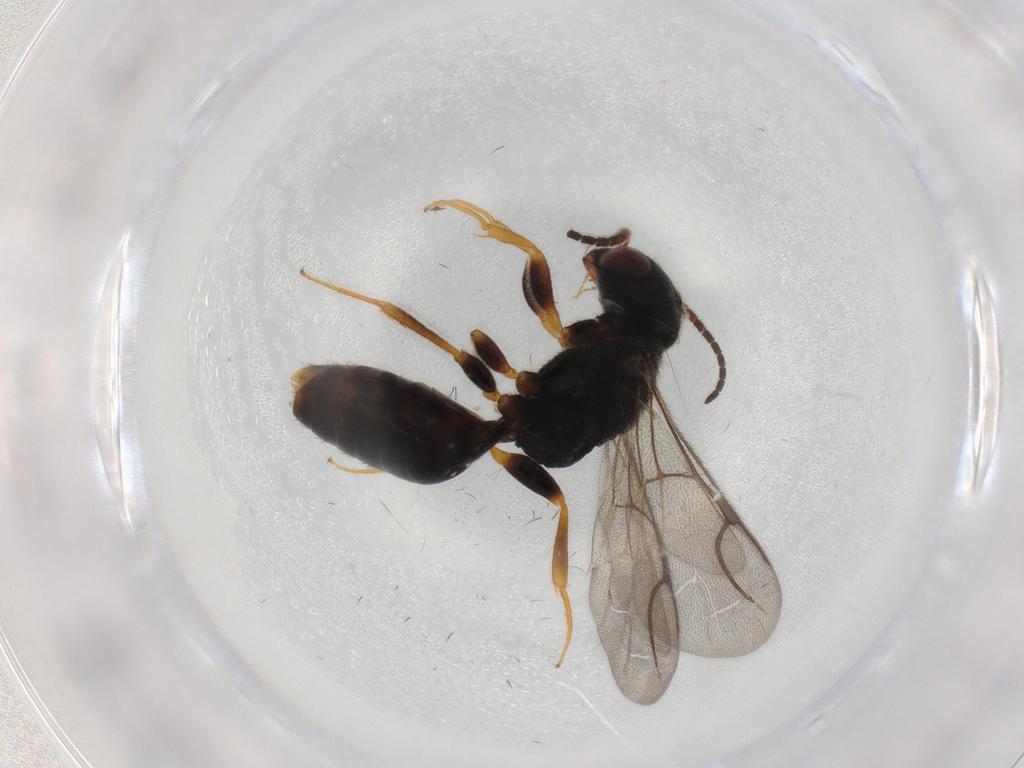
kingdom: Animalia
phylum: Arthropoda
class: Insecta
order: Hymenoptera
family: Bethylidae
